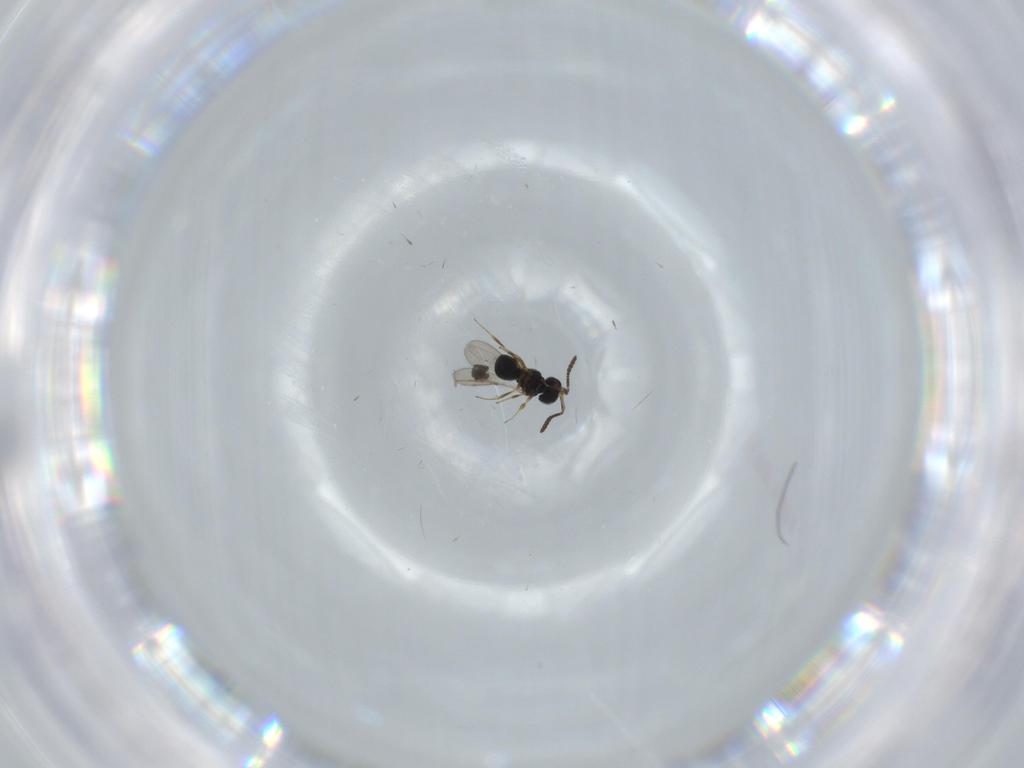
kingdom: Animalia
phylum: Arthropoda
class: Insecta
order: Hymenoptera
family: Scelionidae
